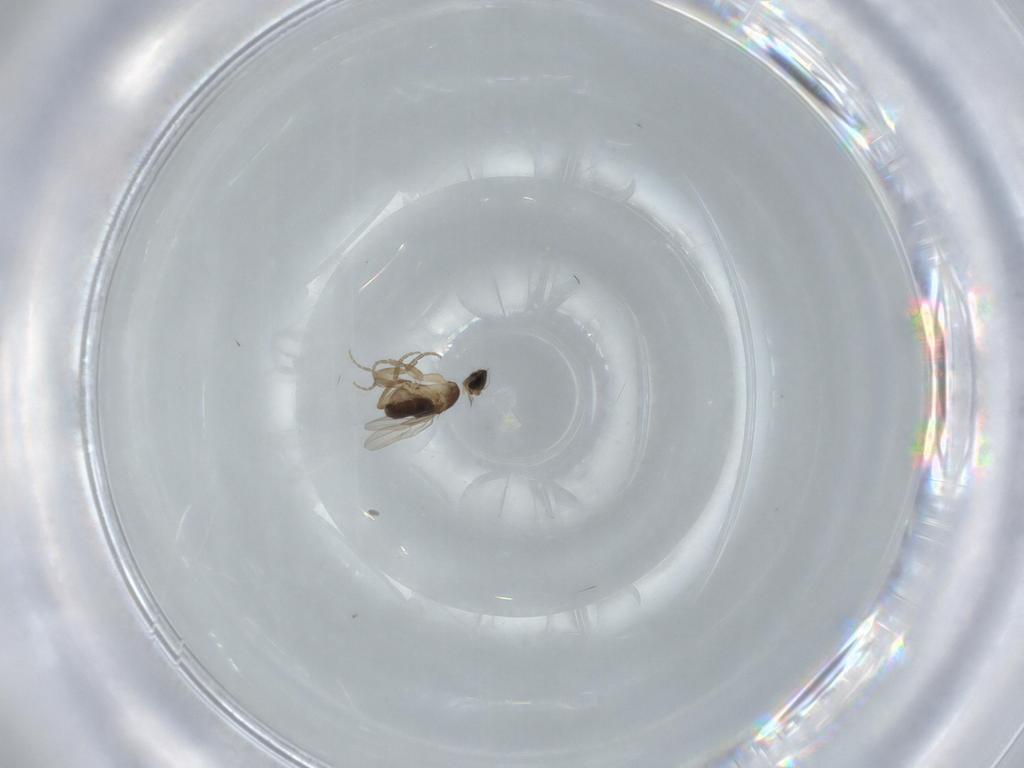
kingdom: Animalia
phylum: Arthropoda
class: Insecta
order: Diptera
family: Phoridae
